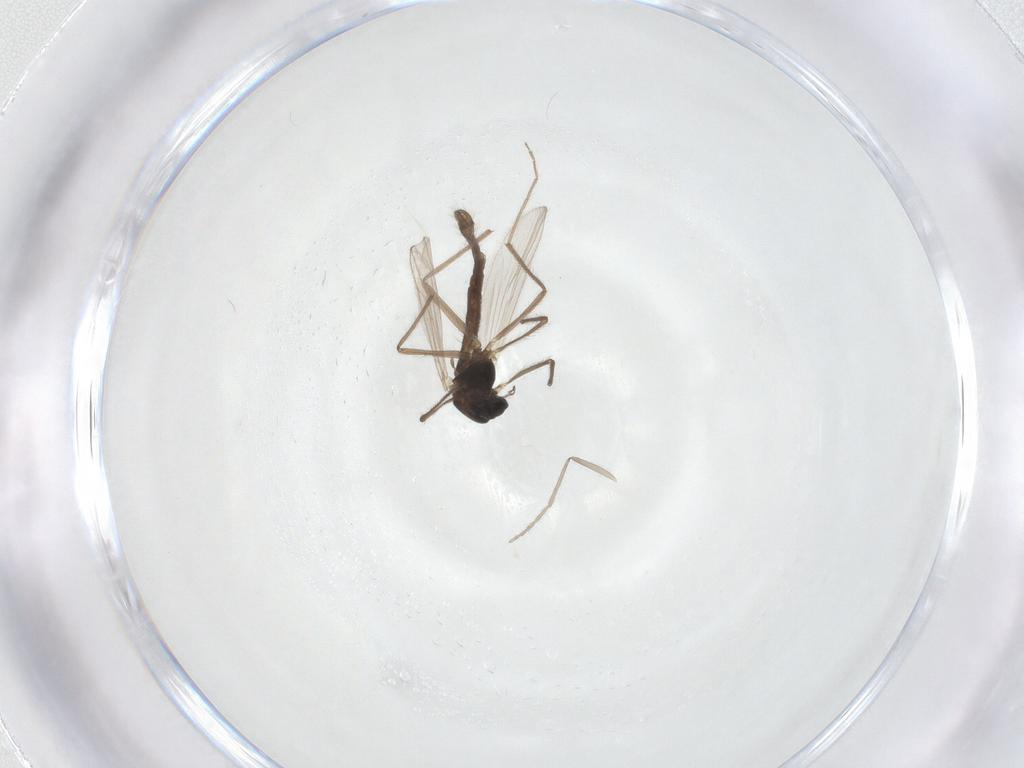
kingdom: Animalia
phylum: Arthropoda
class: Insecta
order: Diptera
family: Chironomidae
